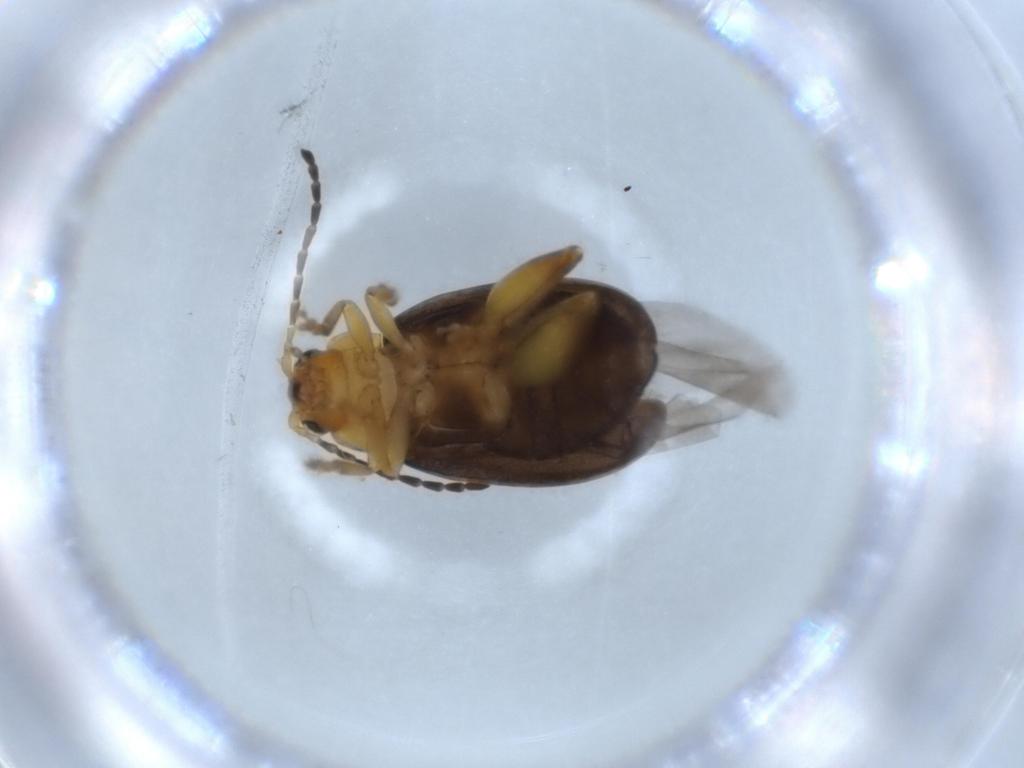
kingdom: Animalia
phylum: Arthropoda
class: Insecta
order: Coleoptera
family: Chrysomelidae
